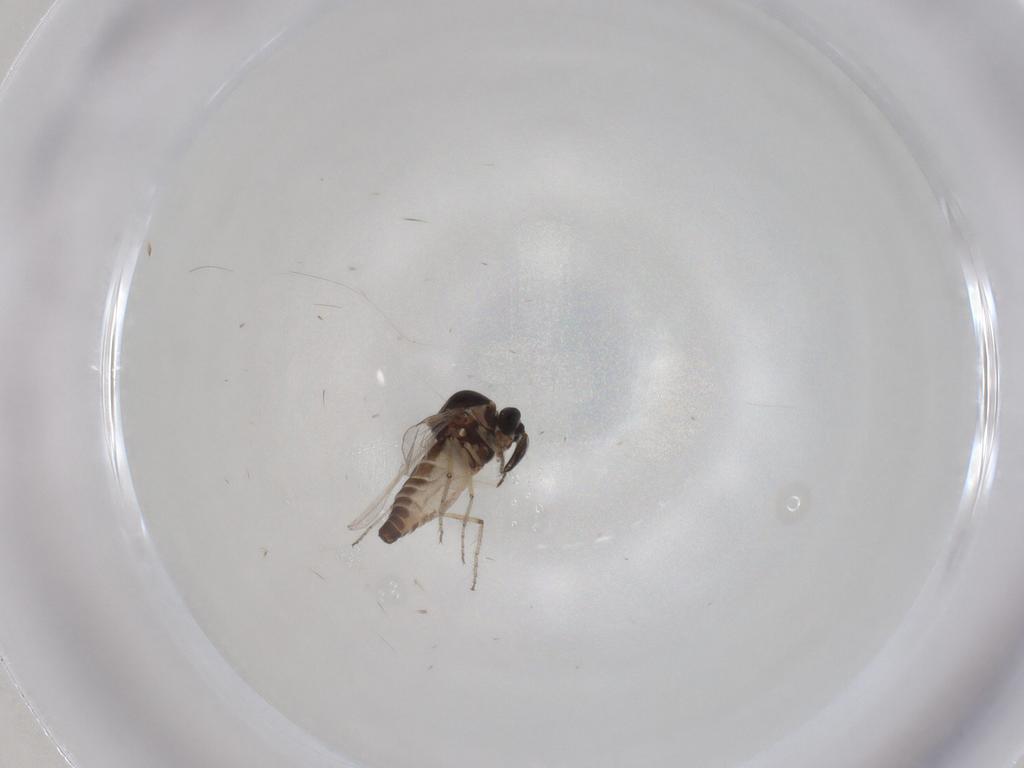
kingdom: Animalia
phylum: Arthropoda
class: Insecta
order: Diptera
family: Ceratopogonidae
